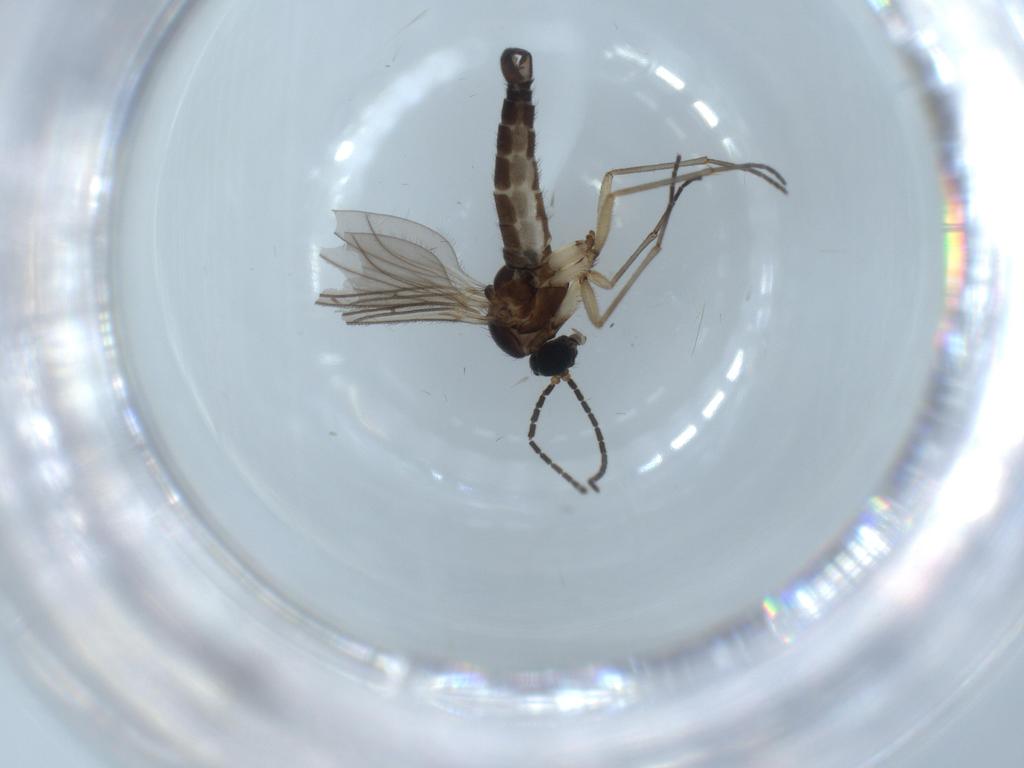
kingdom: Animalia
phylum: Arthropoda
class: Insecta
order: Diptera
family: Sciaridae
